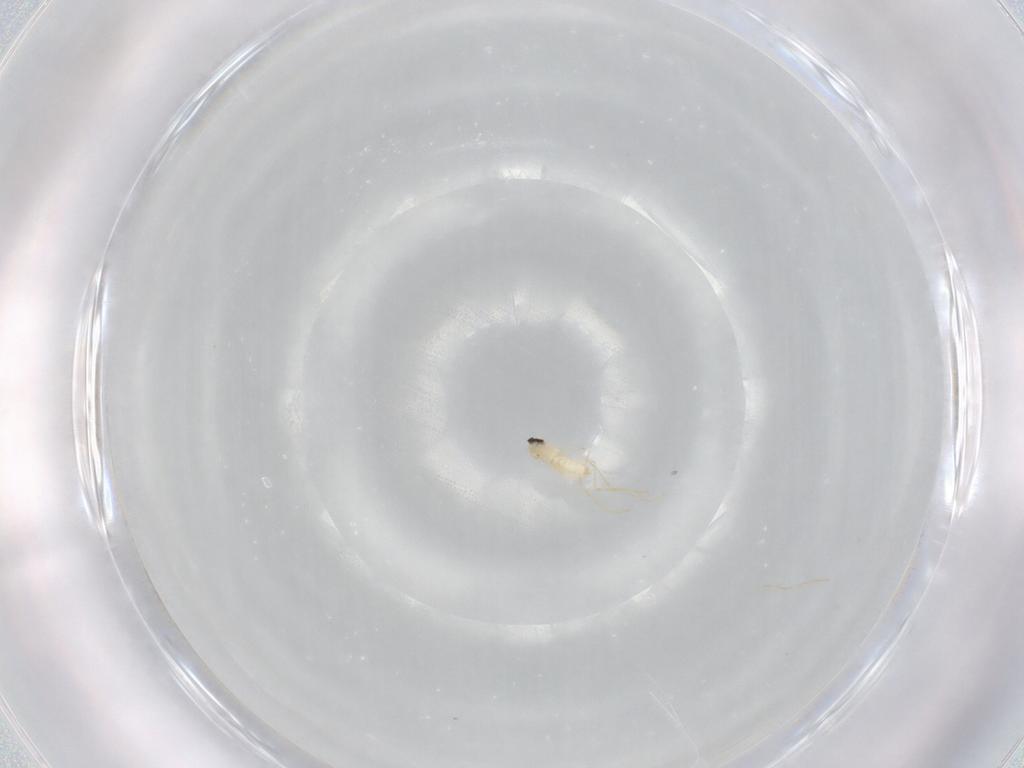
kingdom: Animalia
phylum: Arthropoda
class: Insecta
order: Diptera
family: Cecidomyiidae
